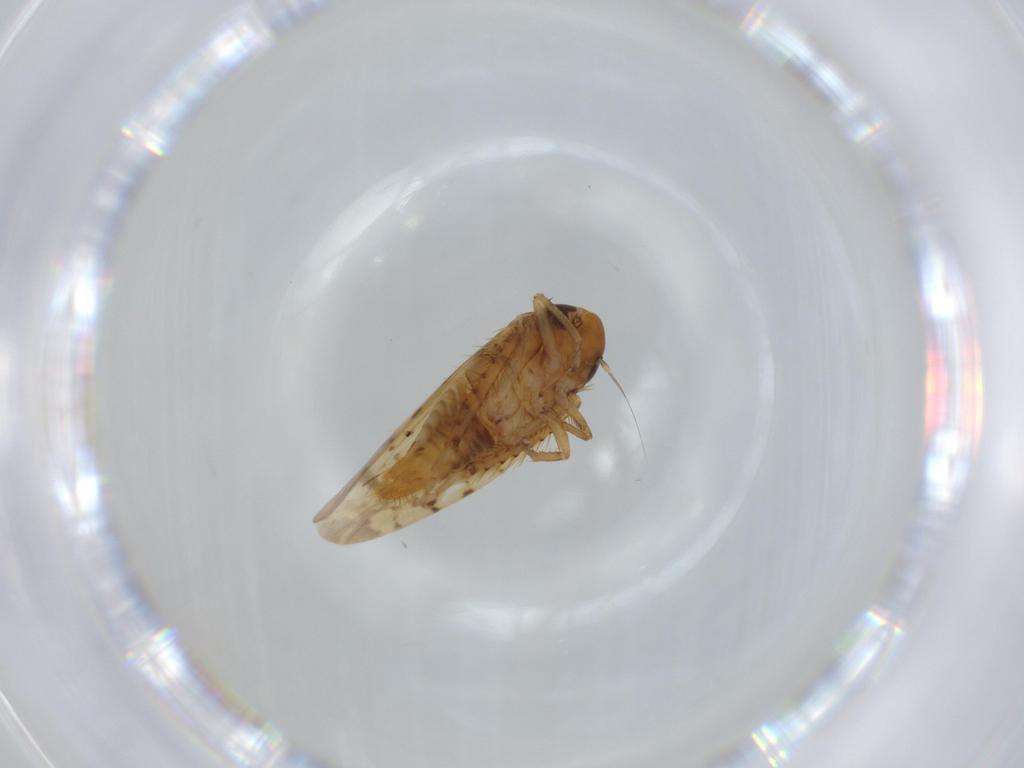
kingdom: Animalia
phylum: Arthropoda
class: Insecta
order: Hemiptera
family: Cicadellidae
